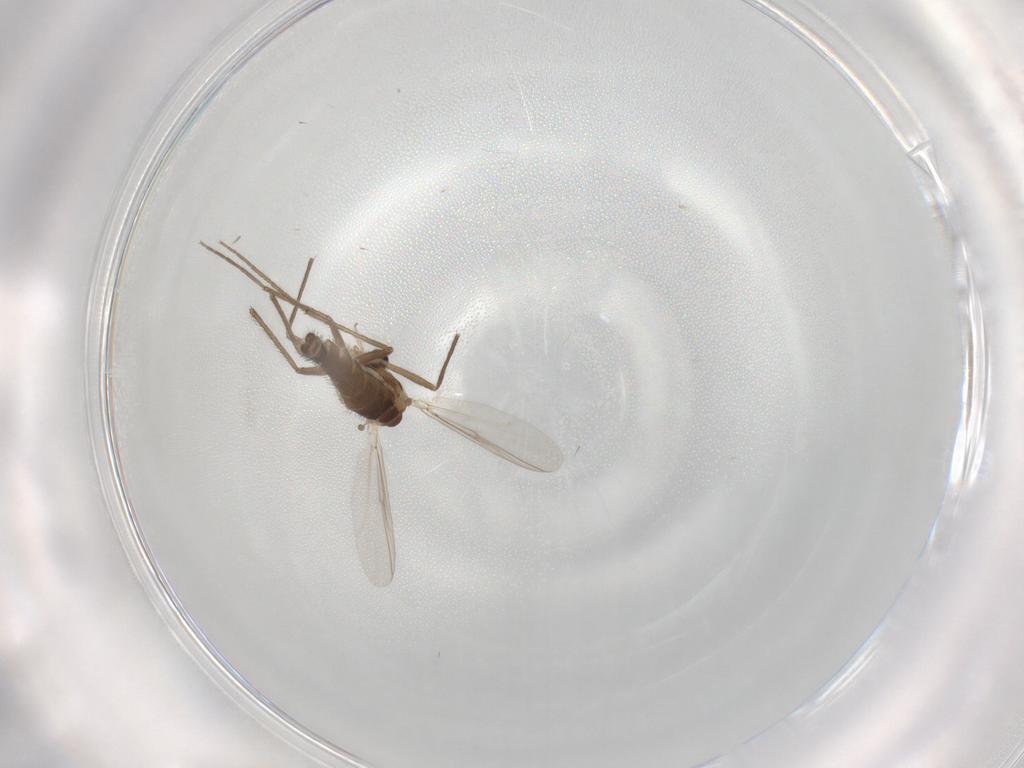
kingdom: Animalia
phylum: Arthropoda
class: Insecta
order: Diptera
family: Chironomidae
